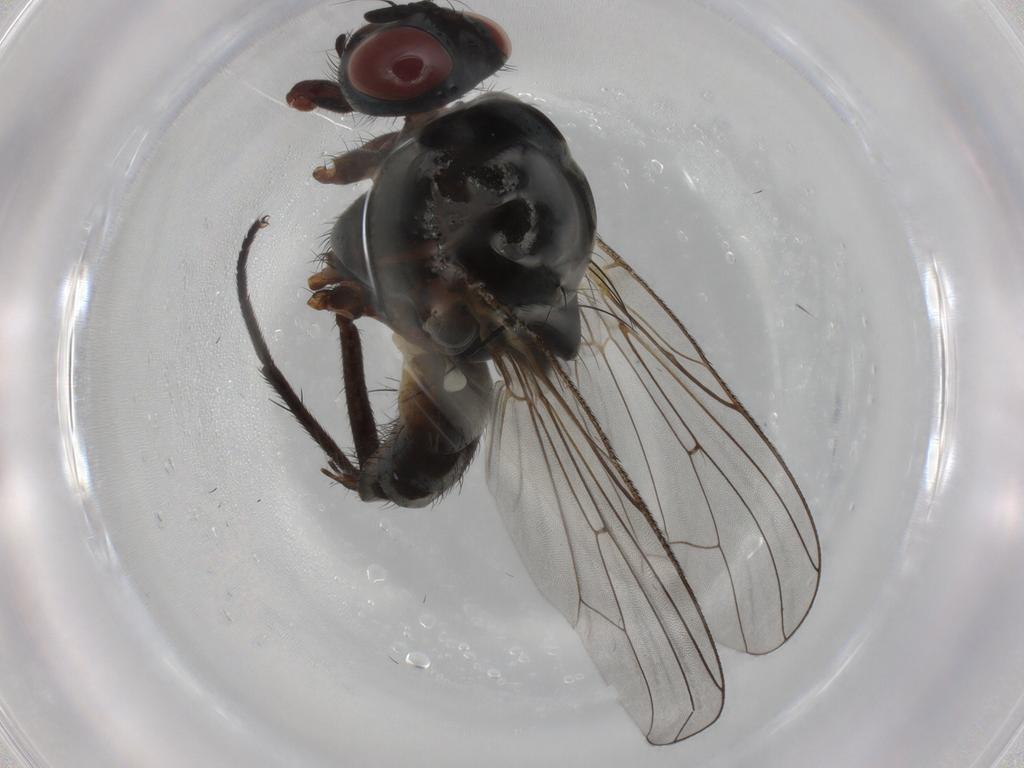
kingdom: Animalia
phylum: Arthropoda
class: Insecta
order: Diptera
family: Anthomyiidae
